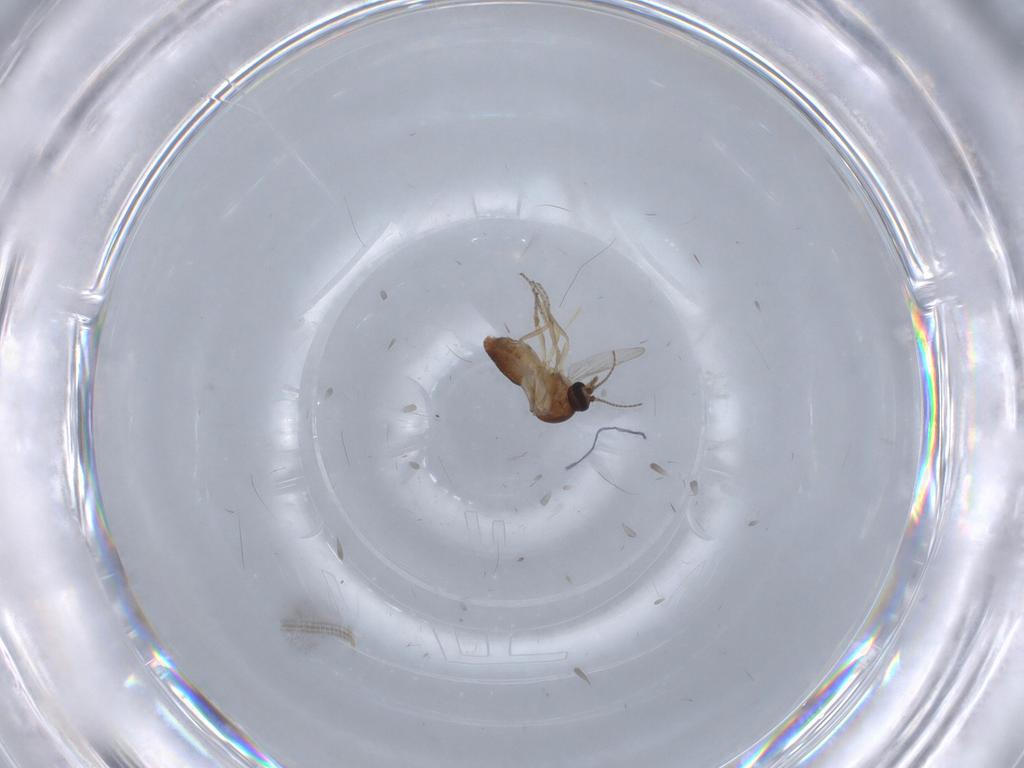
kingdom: Animalia
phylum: Arthropoda
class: Insecta
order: Diptera
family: Ceratopogonidae
